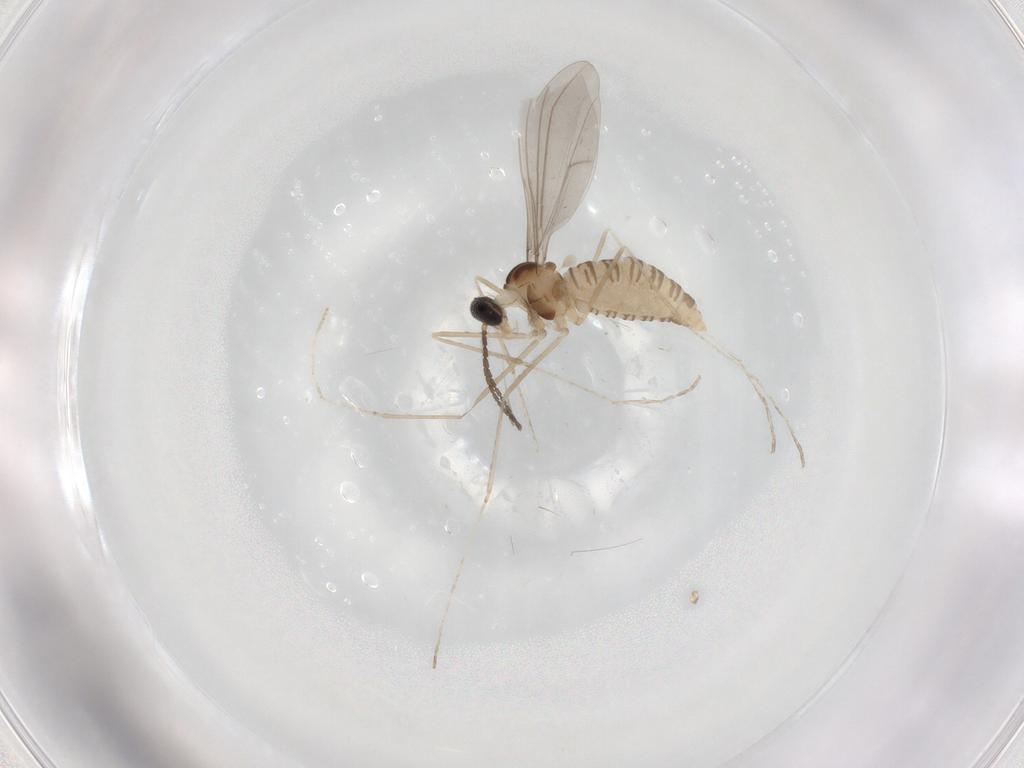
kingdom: Animalia
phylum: Arthropoda
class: Insecta
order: Diptera
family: Cecidomyiidae
